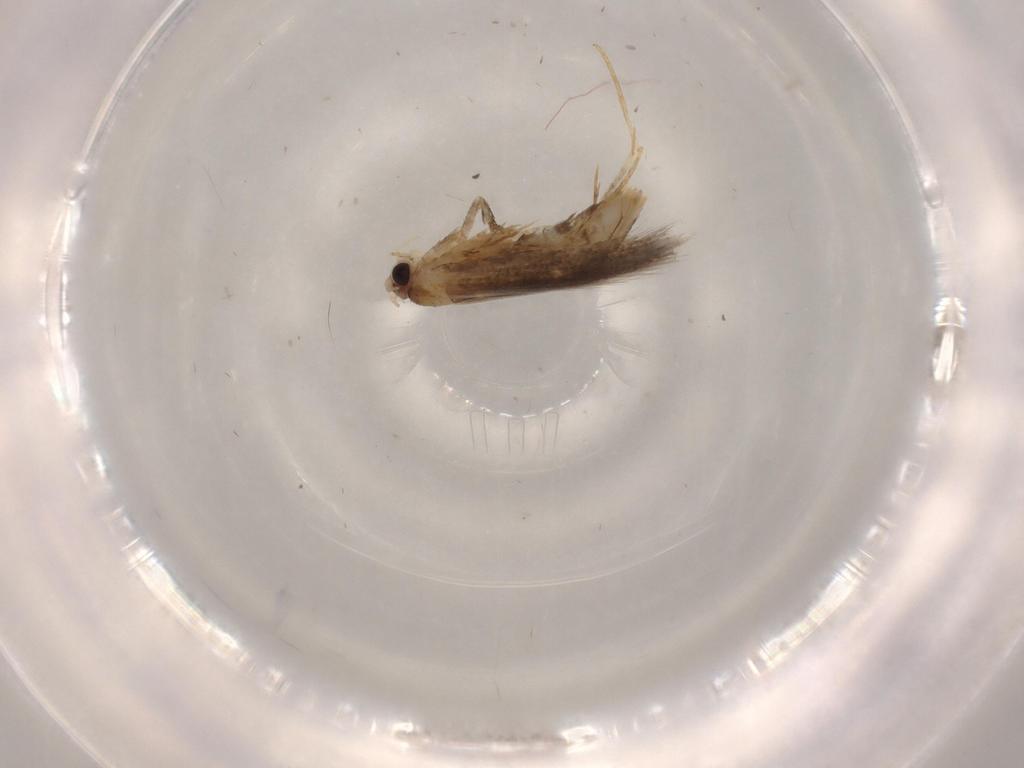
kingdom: Animalia
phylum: Arthropoda
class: Insecta
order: Lepidoptera
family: Tineidae
